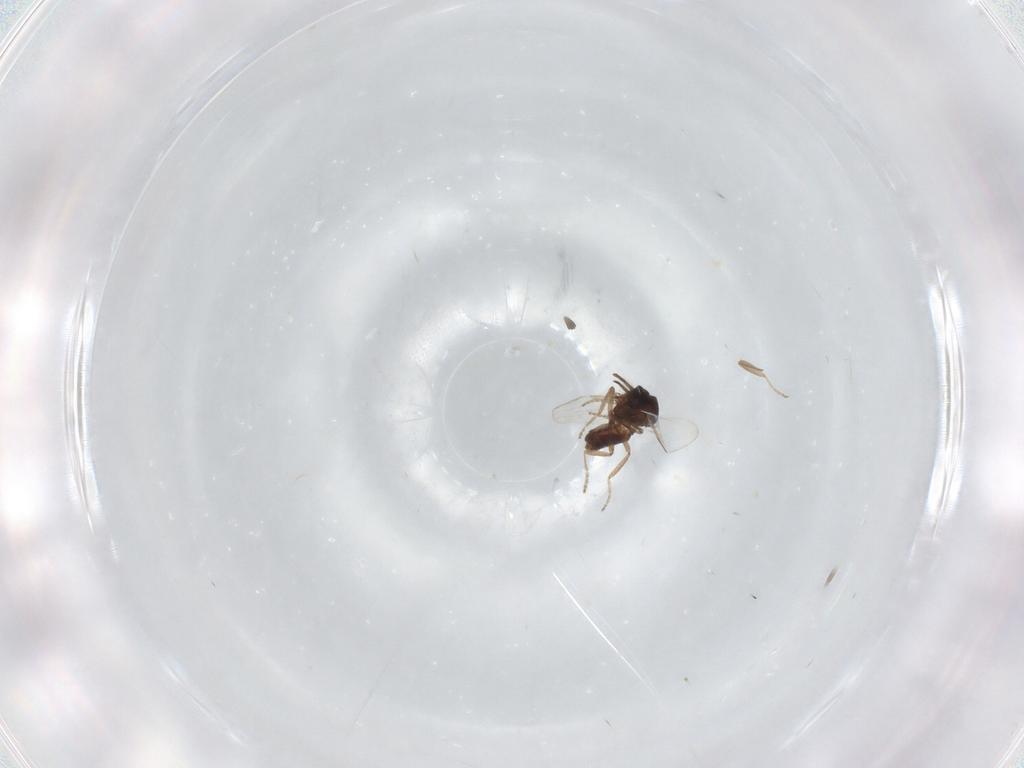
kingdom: Animalia
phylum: Arthropoda
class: Insecta
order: Diptera
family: Ceratopogonidae
